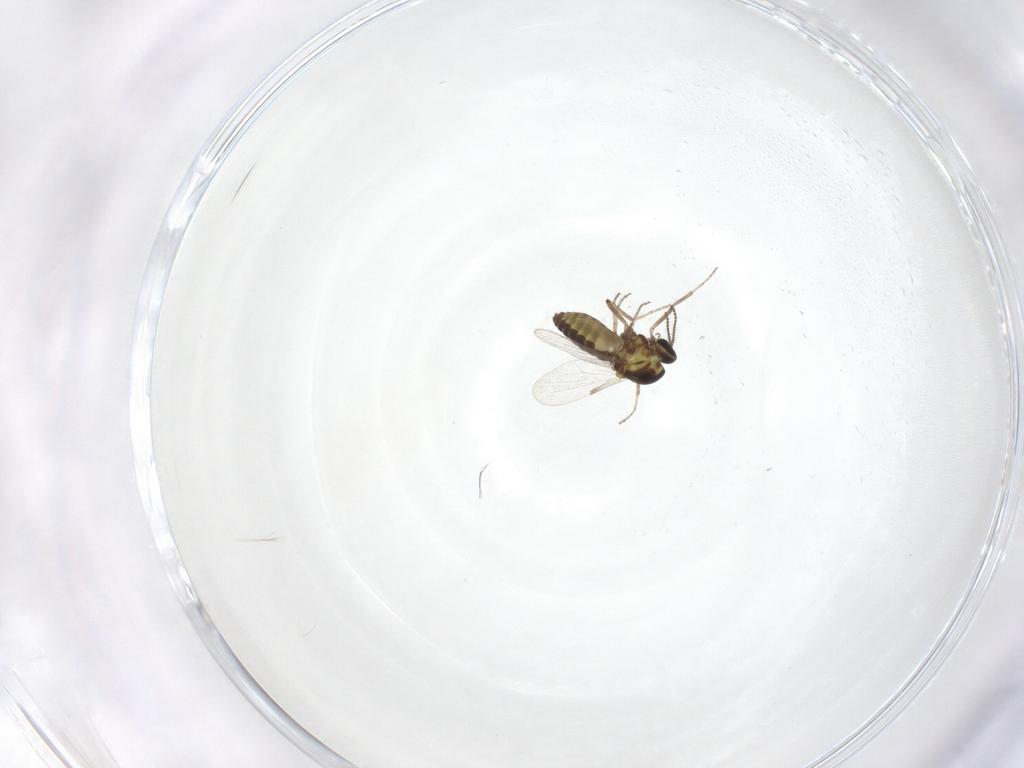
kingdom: Animalia
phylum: Arthropoda
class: Insecta
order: Diptera
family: Ceratopogonidae
